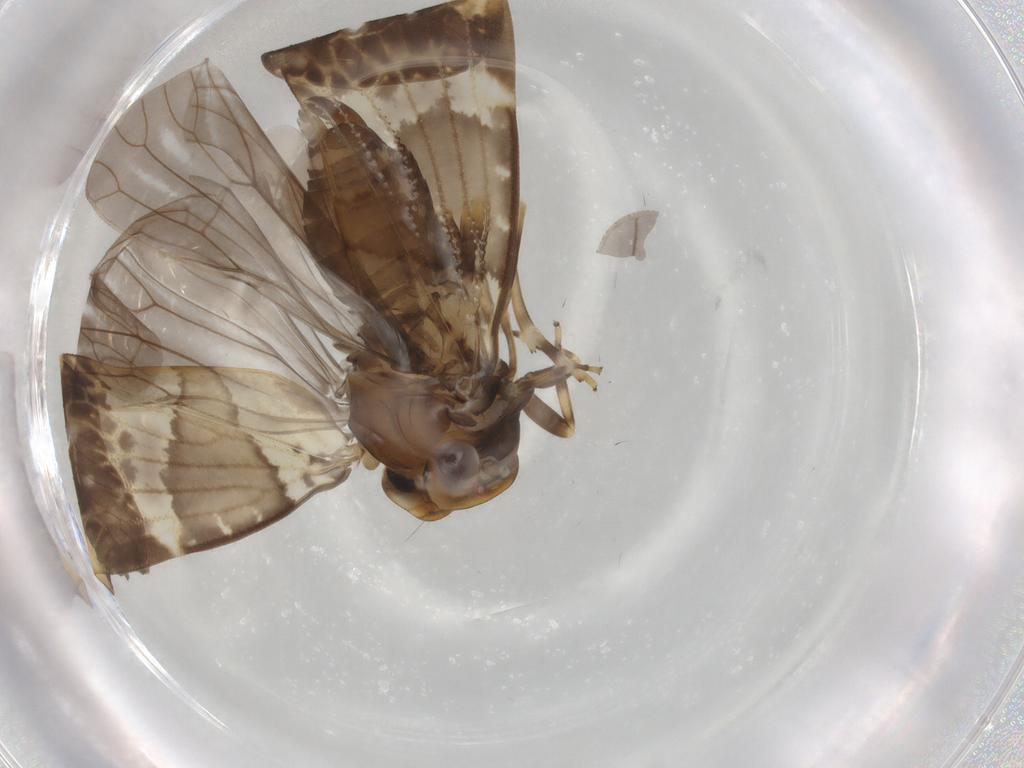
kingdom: Animalia
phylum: Arthropoda
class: Insecta
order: Hemiptera
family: Cixiidae
